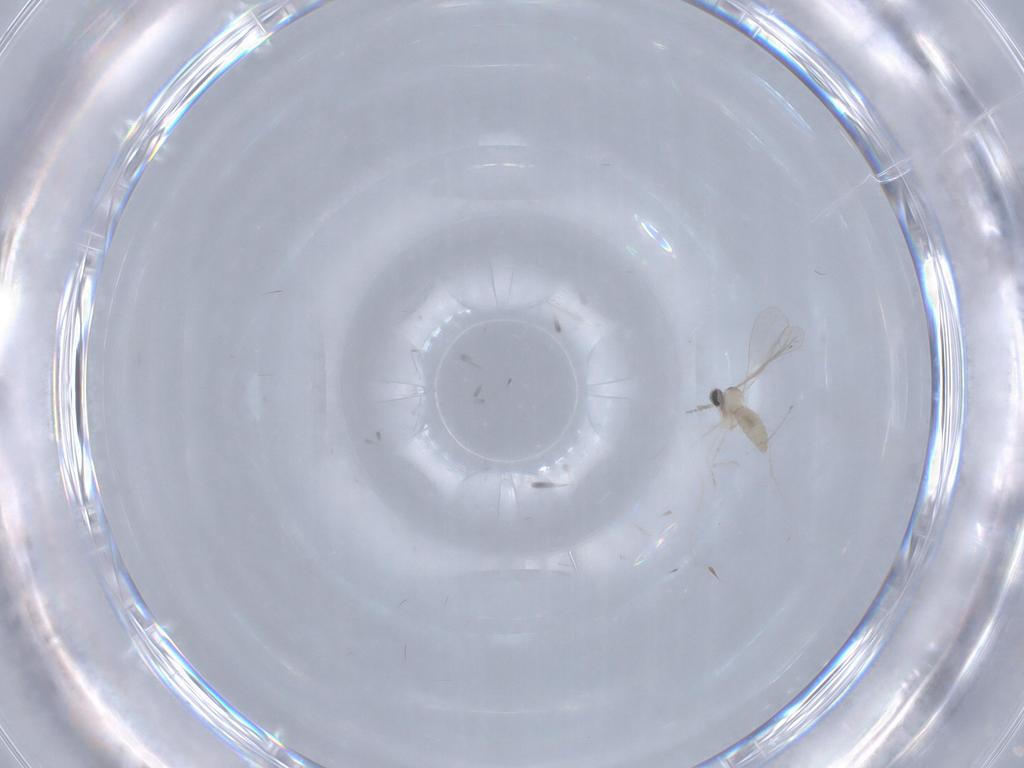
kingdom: Animalia
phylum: Arthropoda
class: Insecta
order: Diptera
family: Cecidomyiidae
